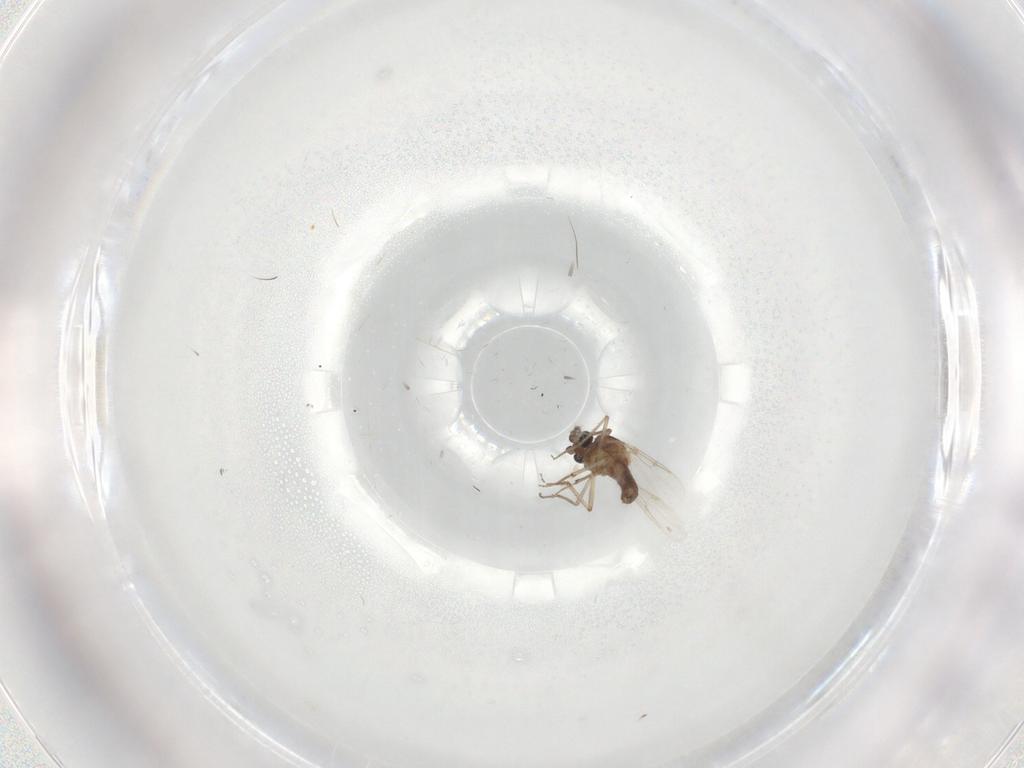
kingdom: Animalia
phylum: Arthropoda
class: Insecta
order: Diptera
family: Ceratopogonidae
